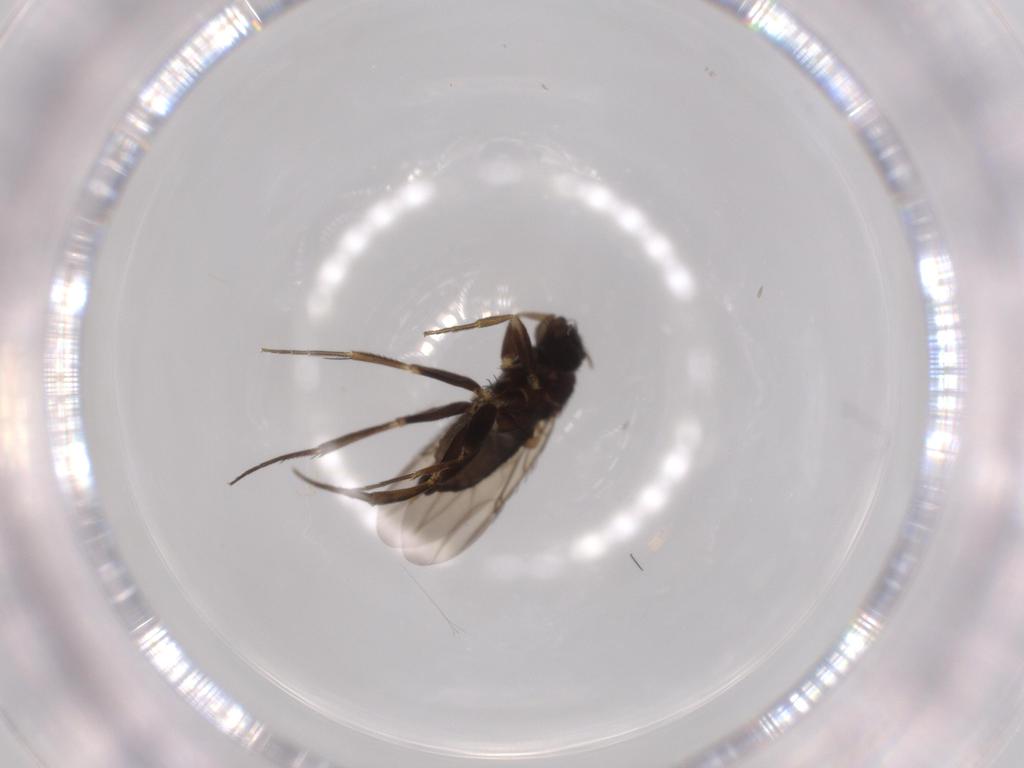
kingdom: Animalia
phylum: Arthropoda
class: Insecta
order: Diptera
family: Phoridae
